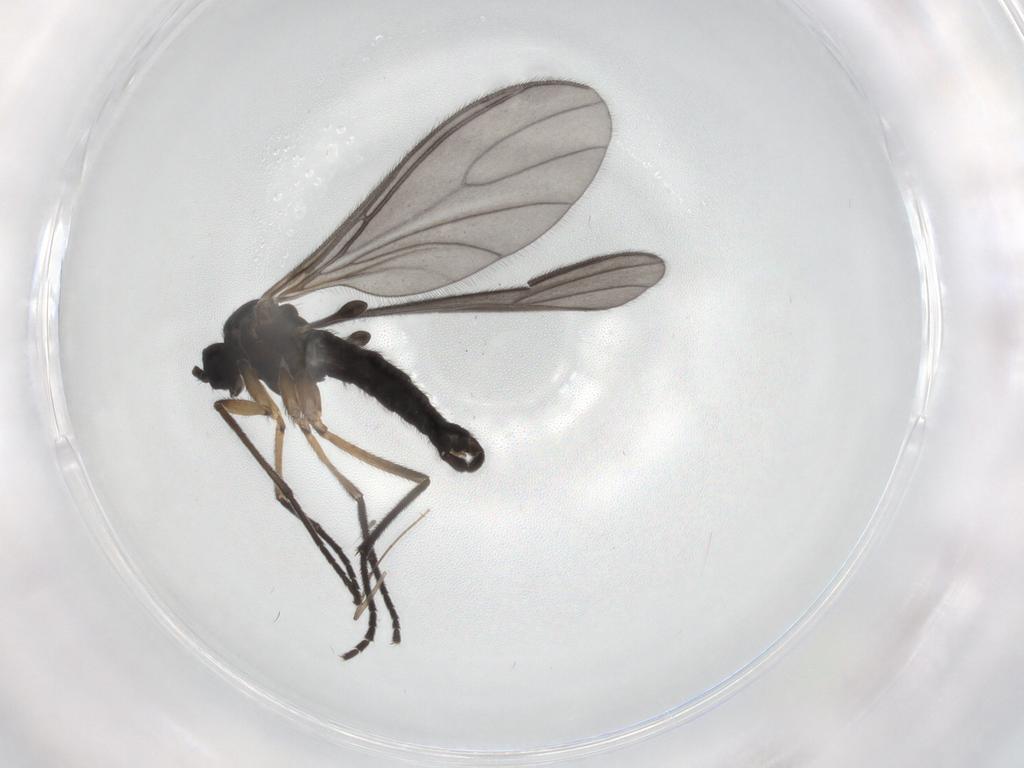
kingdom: Animalia
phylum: Arthropoda
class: Insecta
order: Diptera
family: Sciaridae
